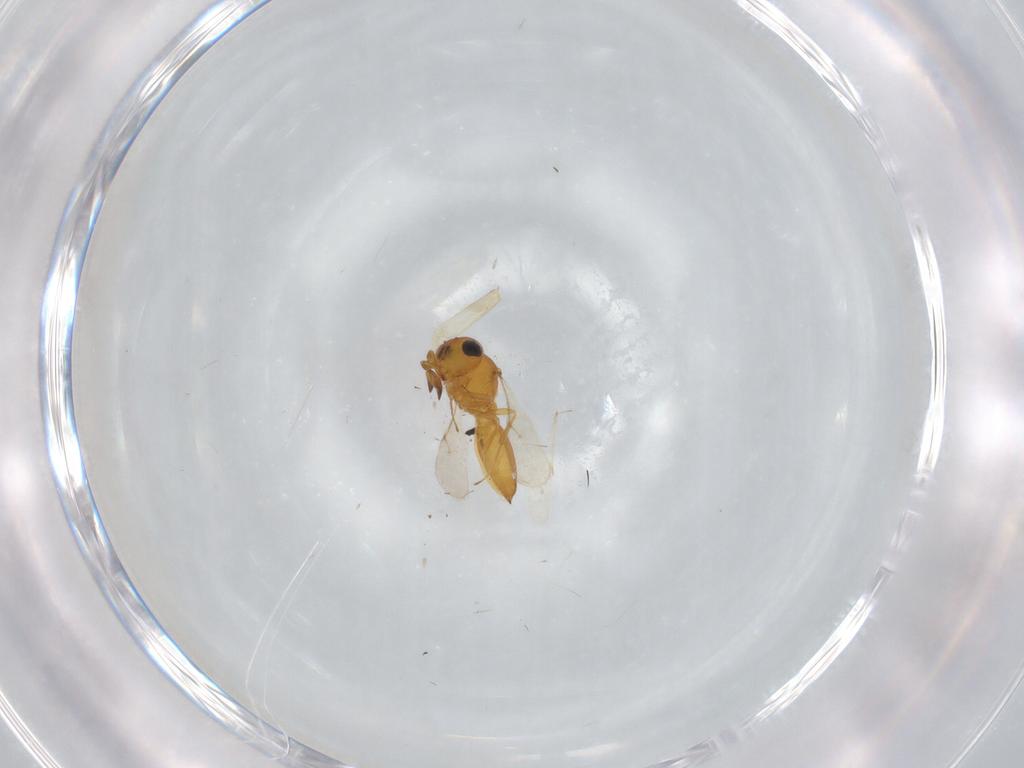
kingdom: Animalia
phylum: Arthropoda
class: Insecta
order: Hymenoptera
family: Scelionidae
